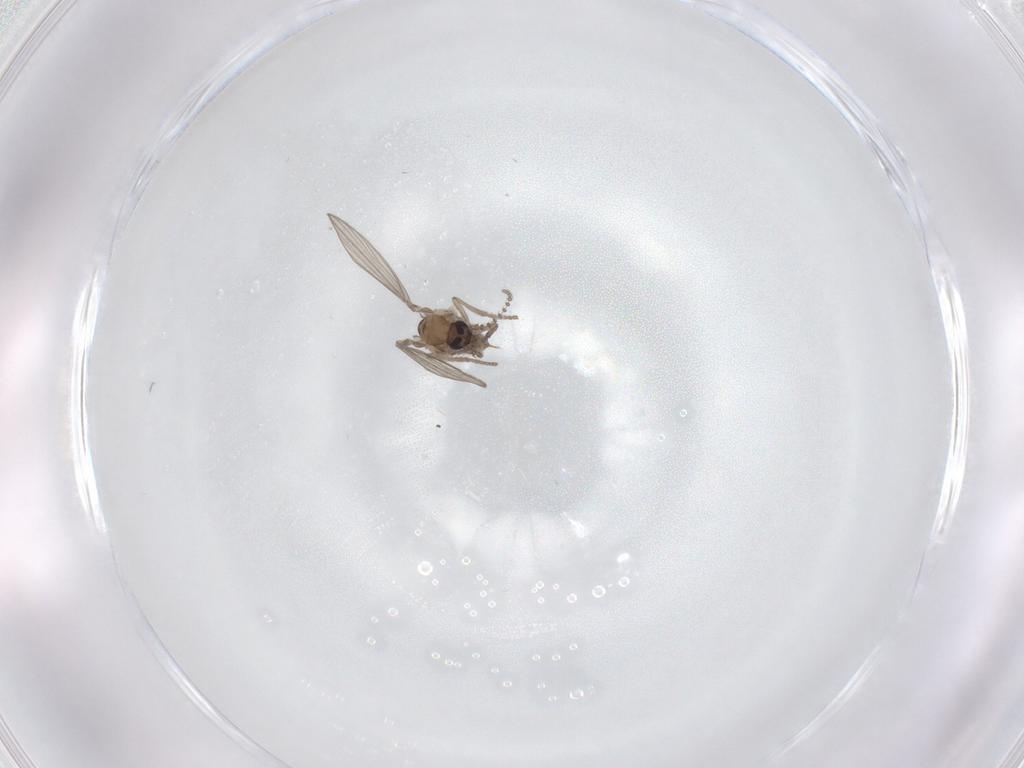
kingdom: Animalia
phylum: Arthropoda
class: Insecta
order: Diptera
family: Psychodidae
